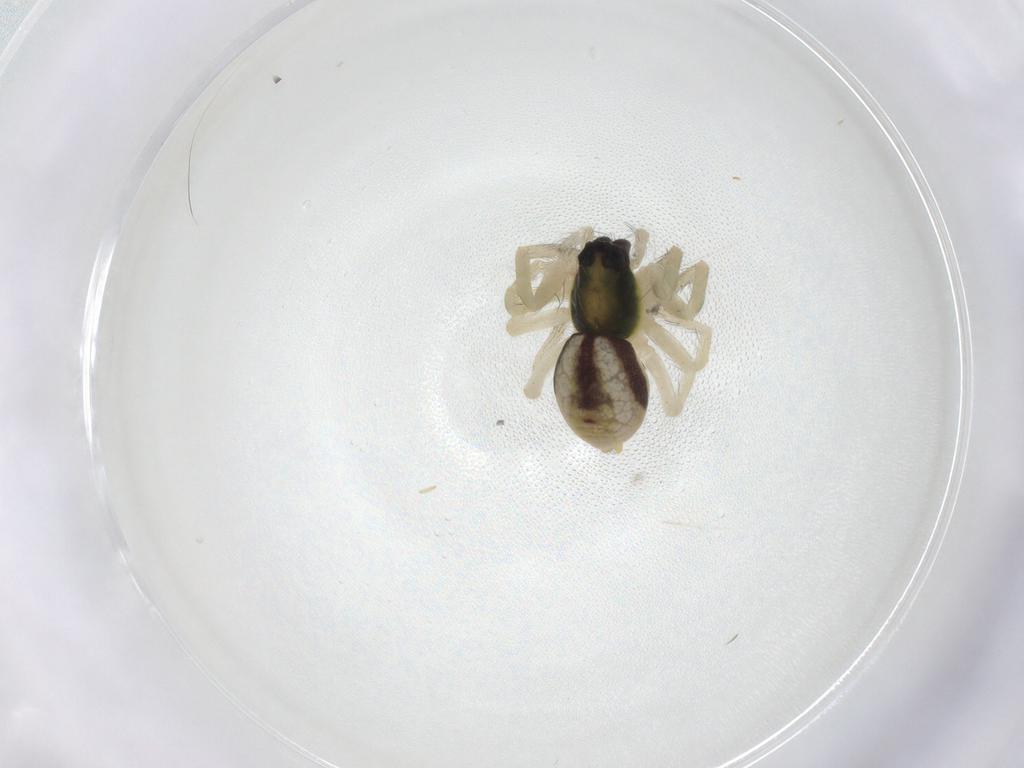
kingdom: Animalia
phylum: Arthropoda
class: Arachnida
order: Araneae
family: Anyphaenidae
